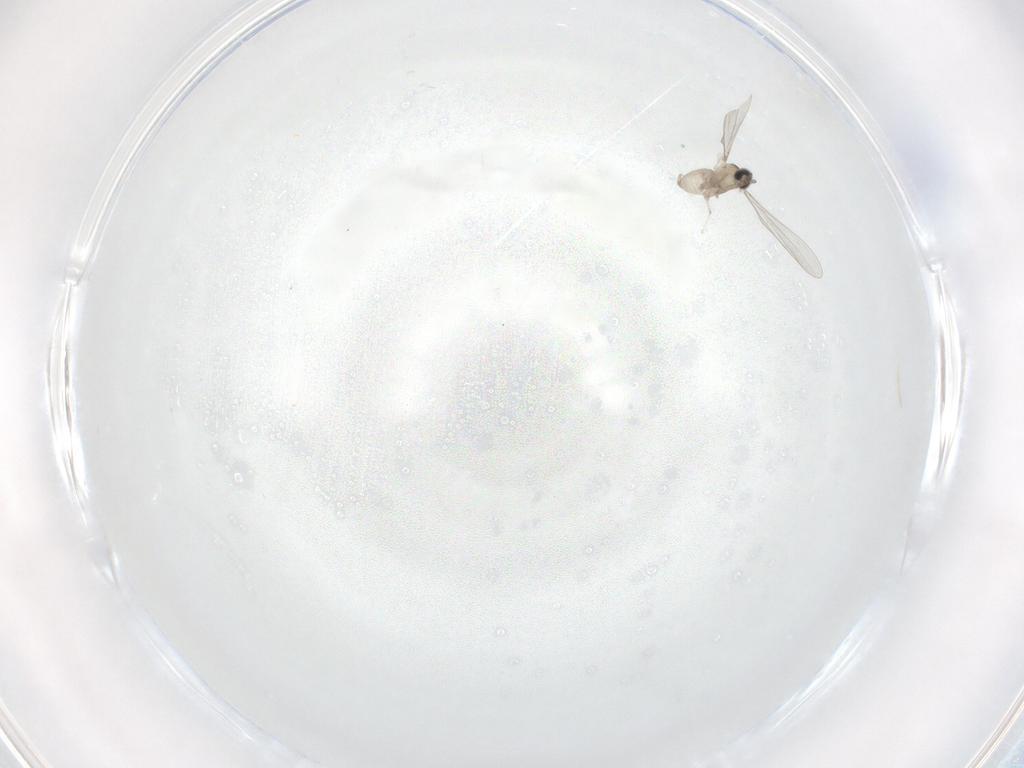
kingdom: Animalia
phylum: Arthropoda
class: Insecta
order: Diptera
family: Cecidomyiidae
